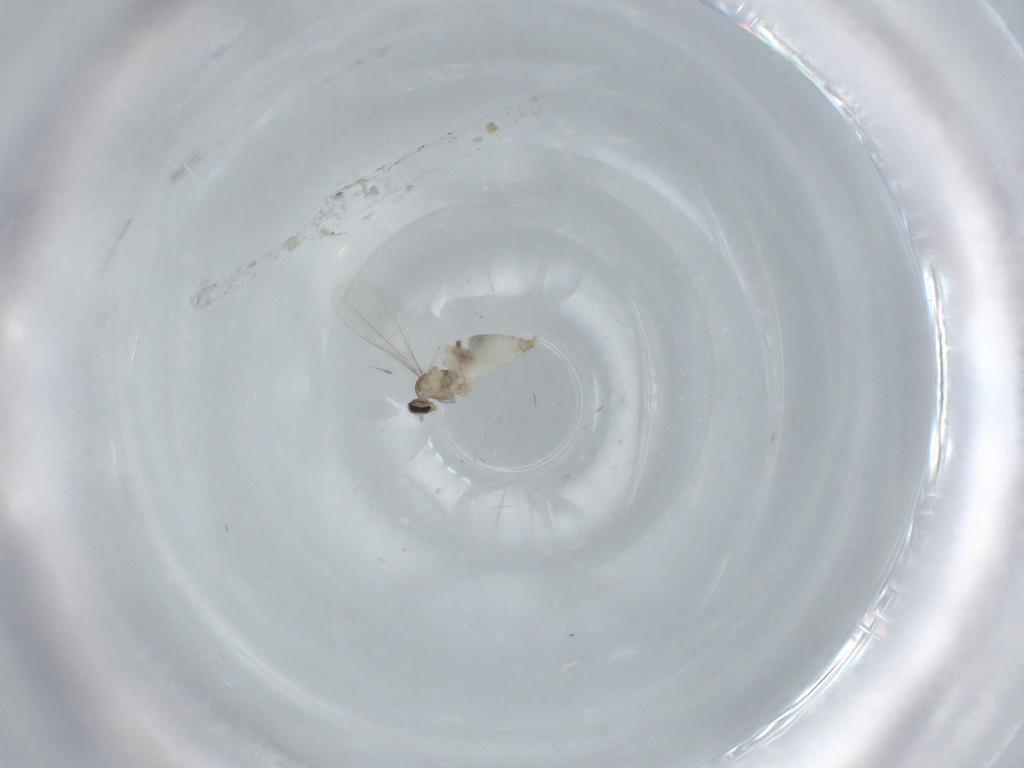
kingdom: Animalia
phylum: Arthropoda
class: Insecta
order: Diptera
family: Cecidomyiidae
